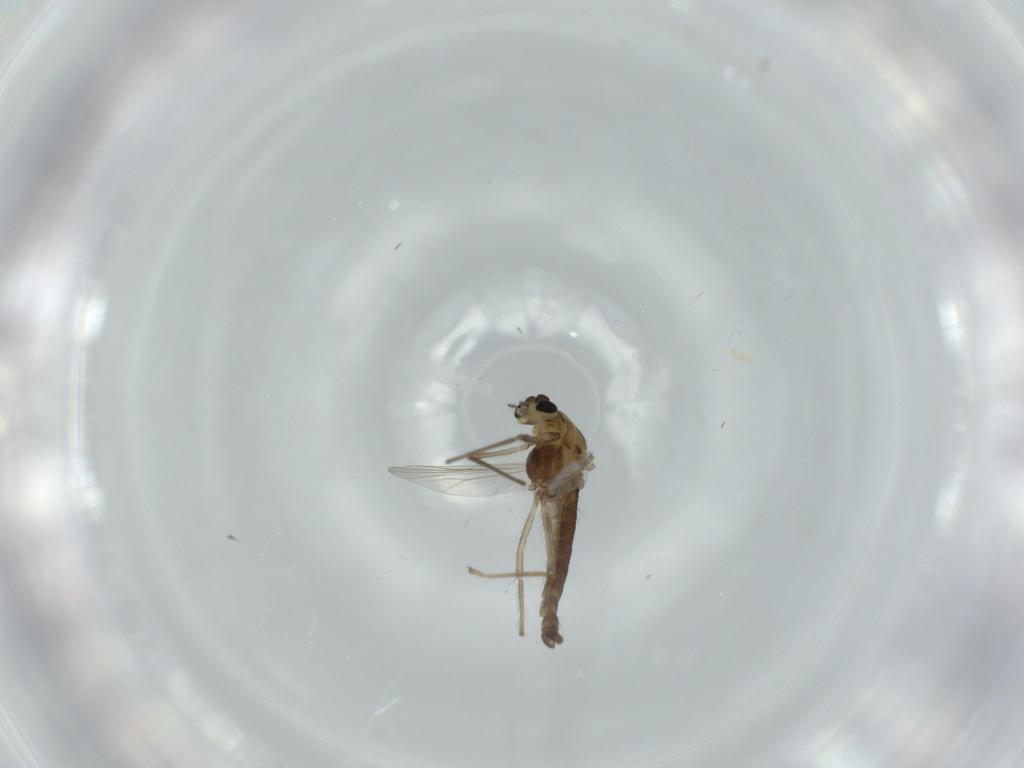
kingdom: Animalia
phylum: Arthropoda
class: Insecta
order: Diptera
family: Chironomidae
